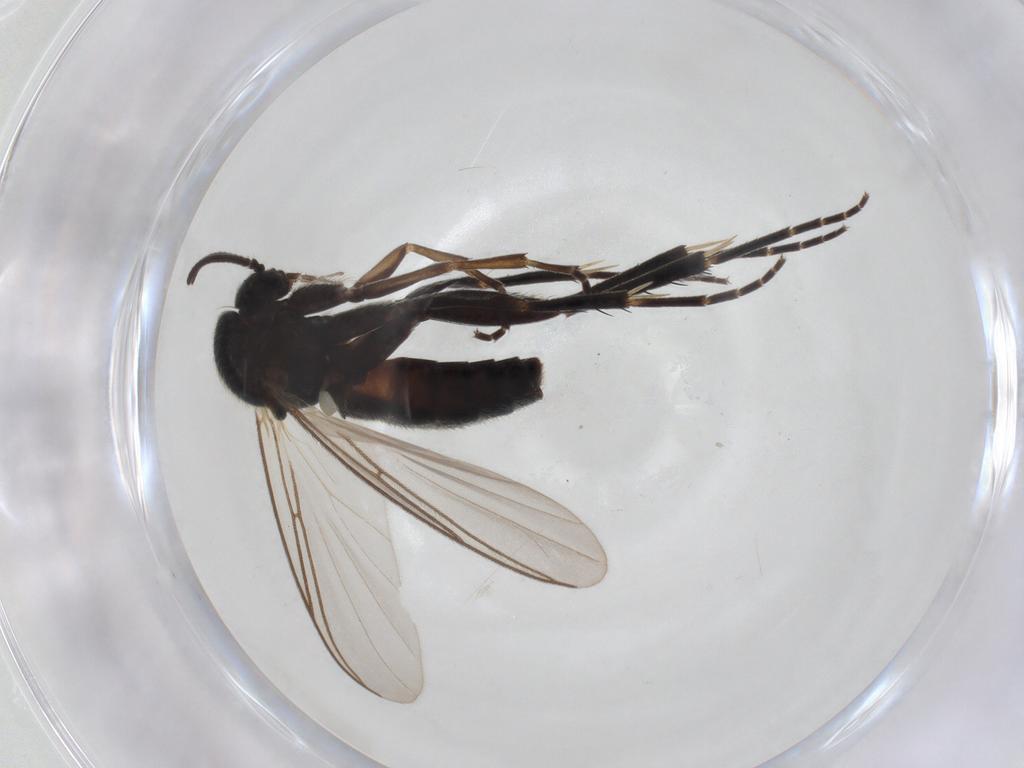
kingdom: Animalia
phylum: Arthropoda
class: Insecta
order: Diptera
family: Mycetophilidae
